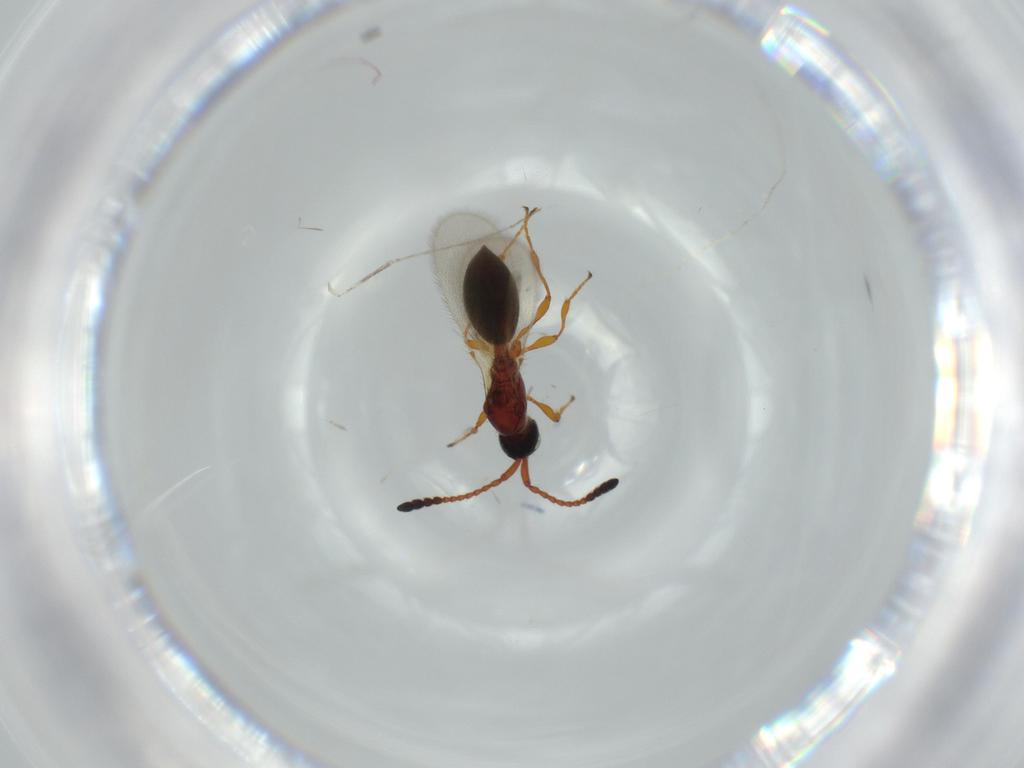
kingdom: Animalia
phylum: Arthropoda
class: Insecta
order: Hymenoptera
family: Diapriidae
